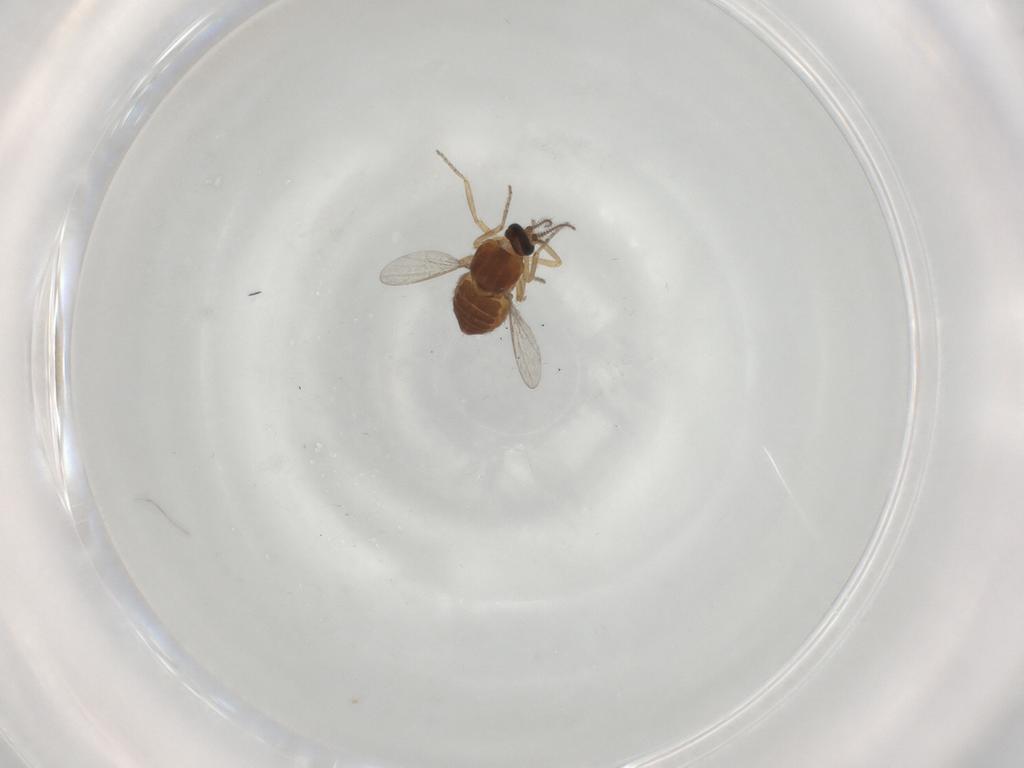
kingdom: Animalia
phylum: Arthropoda
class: Insecta
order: Diptera
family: Ceratopogonidae
